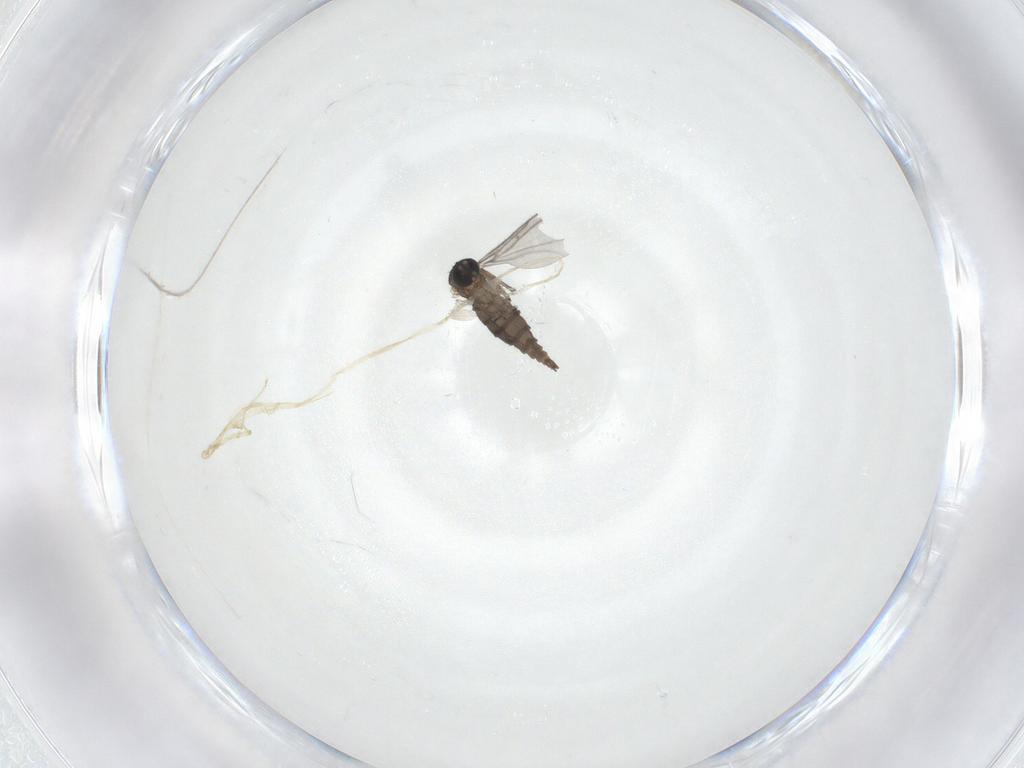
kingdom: Animalia
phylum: Arthropoda
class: Insecta
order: Diptera
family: Sciaridae
